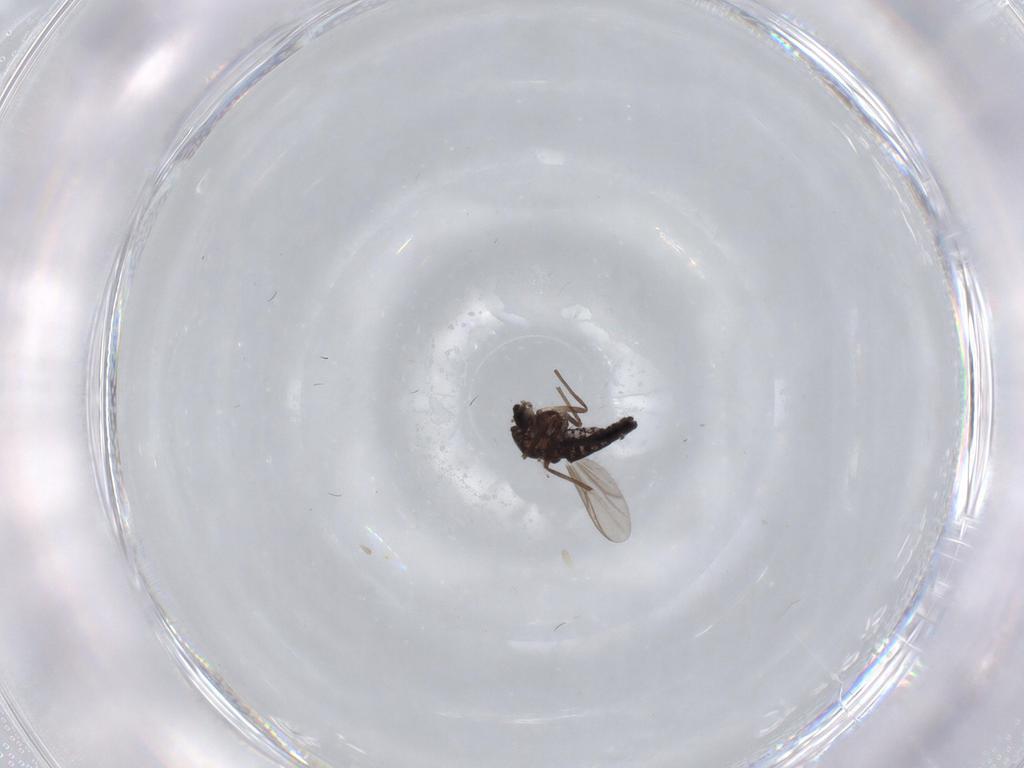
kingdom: Animalia
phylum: Arthropoda
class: Insecta
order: Diptera
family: Chironomidae
